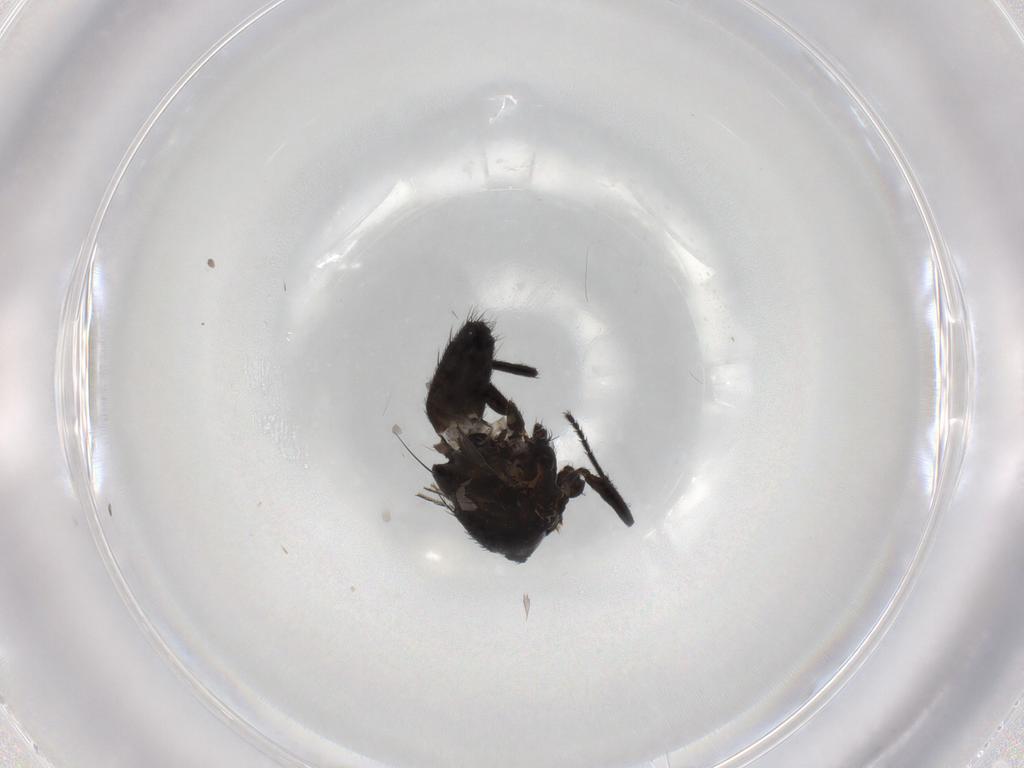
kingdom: Animalia
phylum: Arthropoda
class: Insecta
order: Diptera
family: Milichiidae
